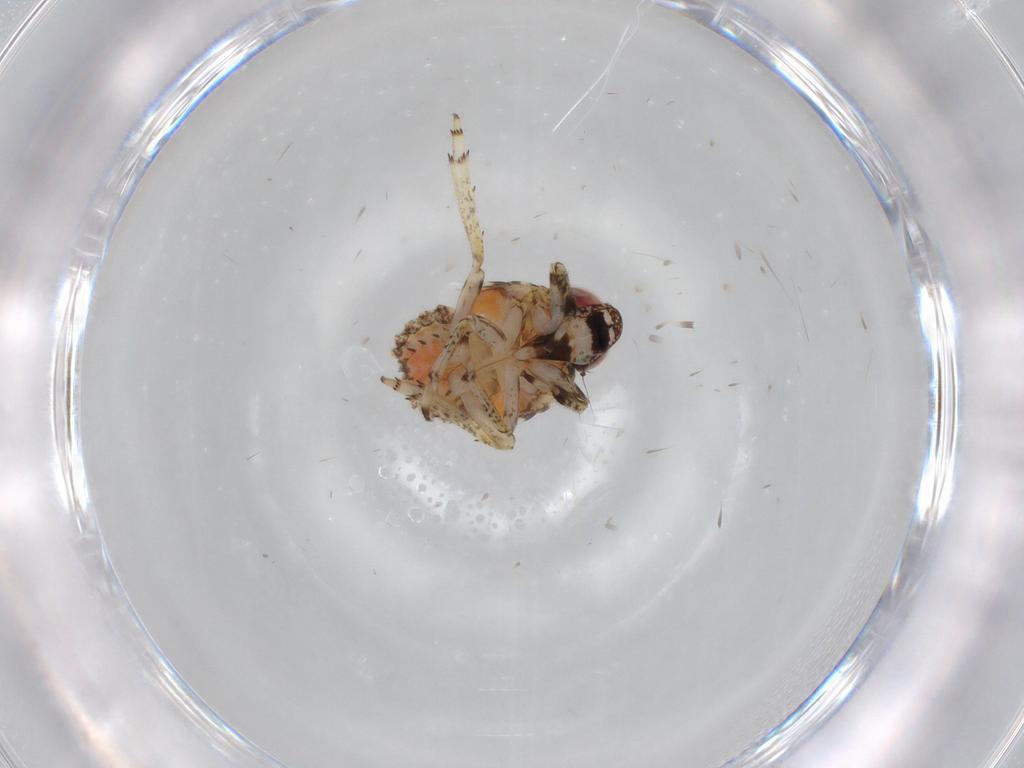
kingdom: Animalia
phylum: Arthropoda
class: Insecta
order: Hemiptera
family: Issidae
